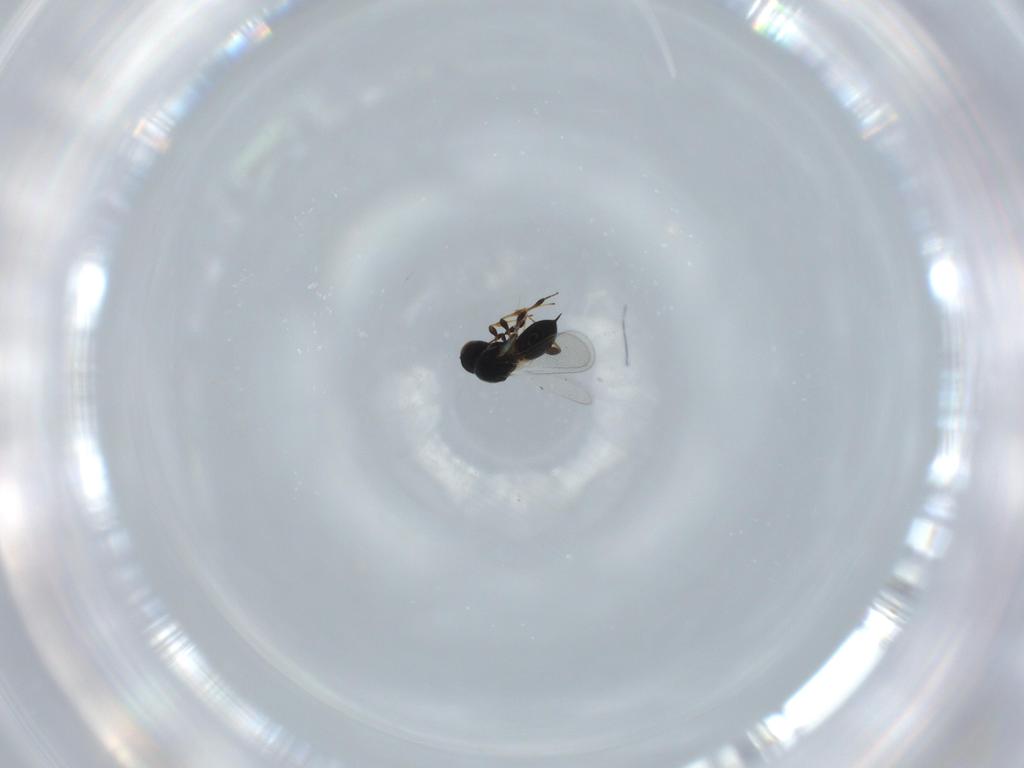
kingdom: Animalia
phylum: Arthropoda
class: Insecta
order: Hymenoptera
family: Platygastridae
